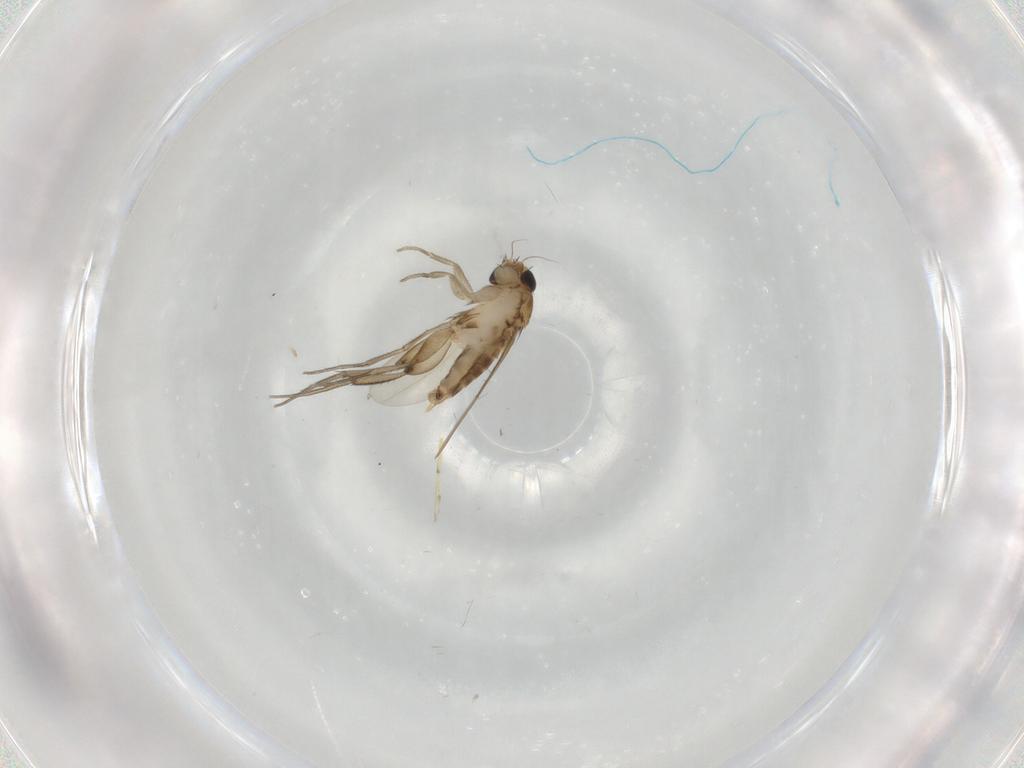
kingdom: Animalia
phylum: Arthropoda
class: Insecta
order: Diptera
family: Phoridae
